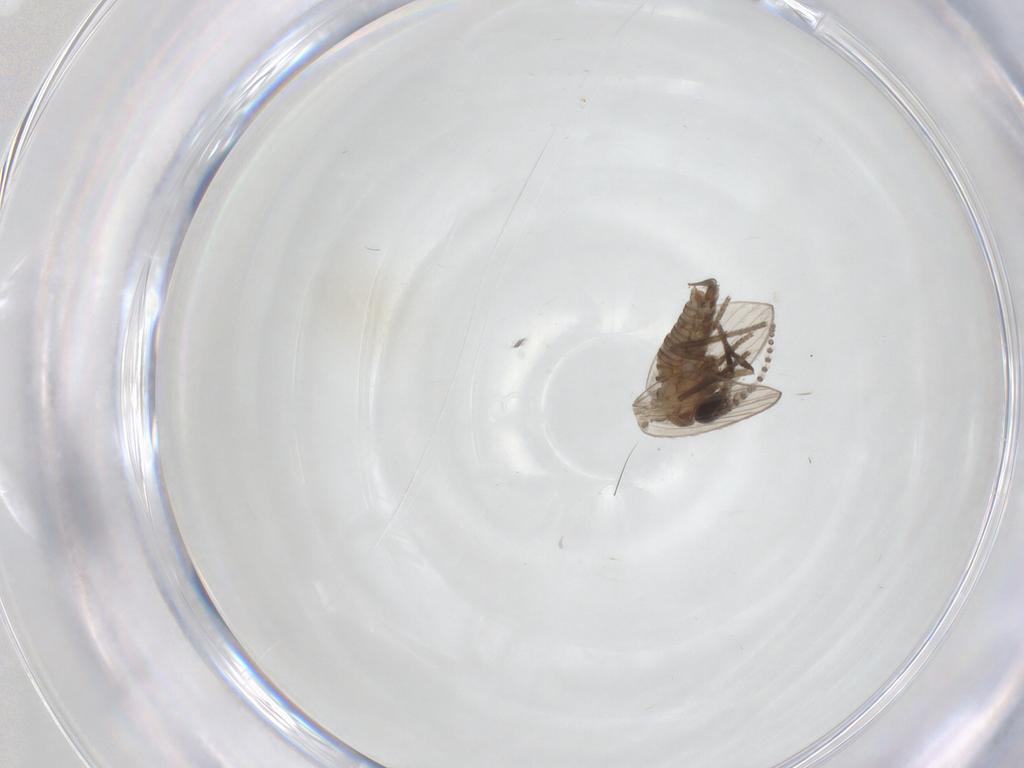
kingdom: Animalia
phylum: Arthropoda
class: Insecta
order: Diptera
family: Psychodidae
